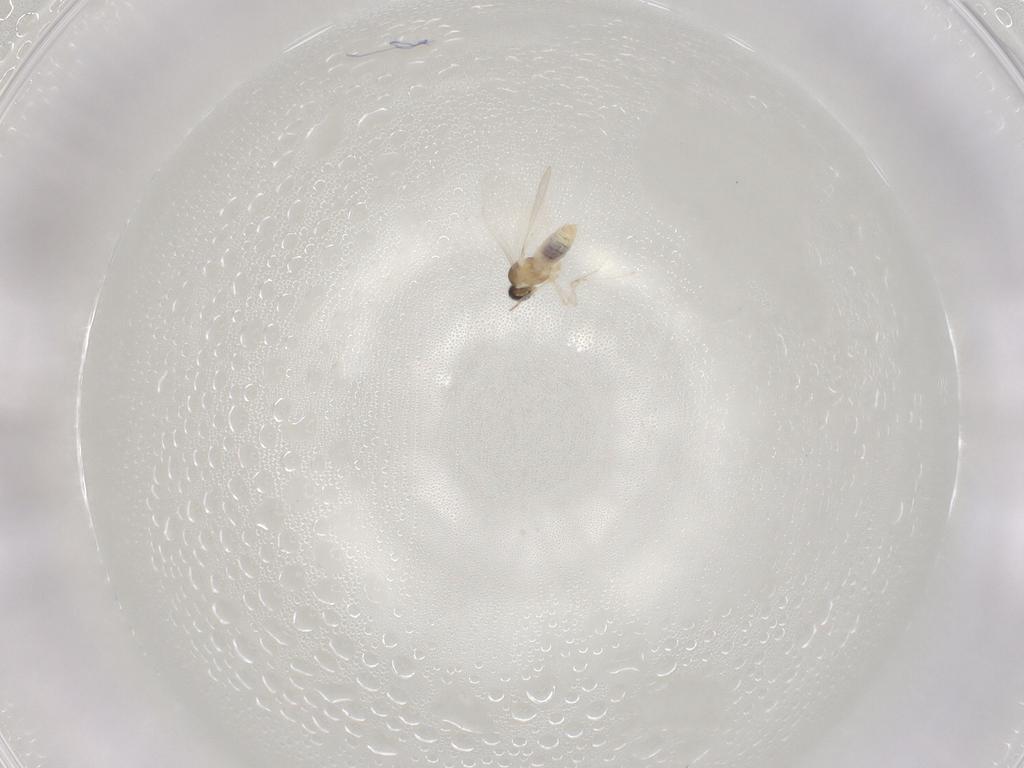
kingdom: Animalia
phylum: Arthropoda
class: Insecta
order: Diptera
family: Cecidomyiidae
